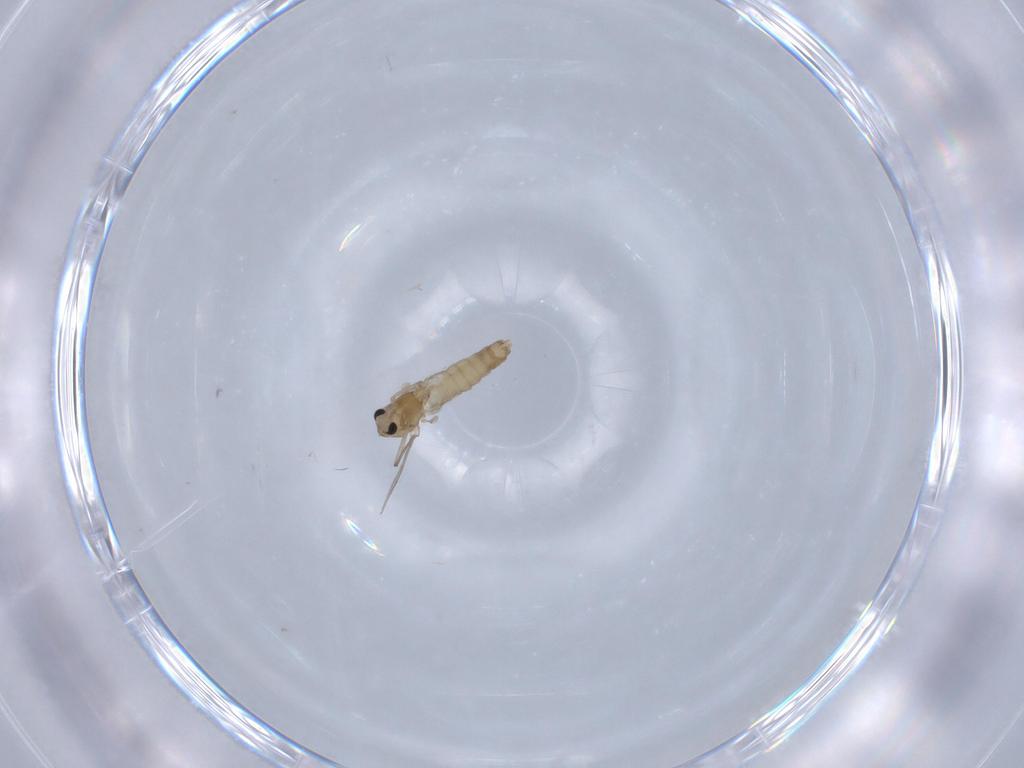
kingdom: Animalia
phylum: Arthropoda
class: Insecta
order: Diptera
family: Chironomidae
